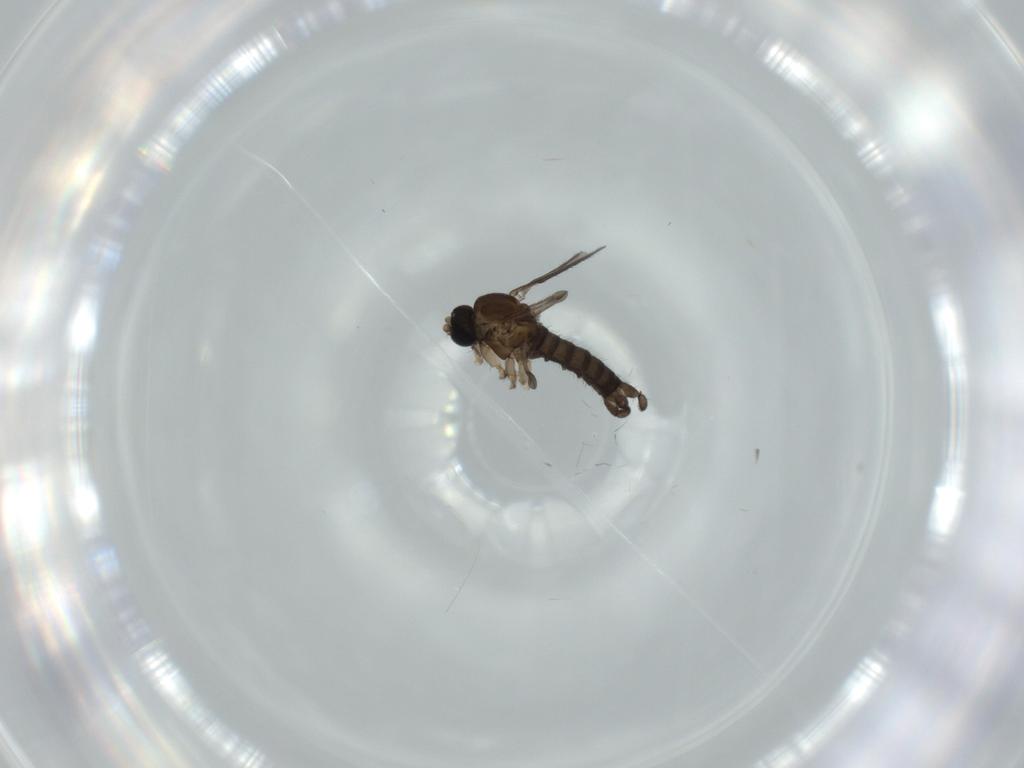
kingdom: Animalia
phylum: Arthropoda
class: Insecta
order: Diptera
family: Sciaridae
